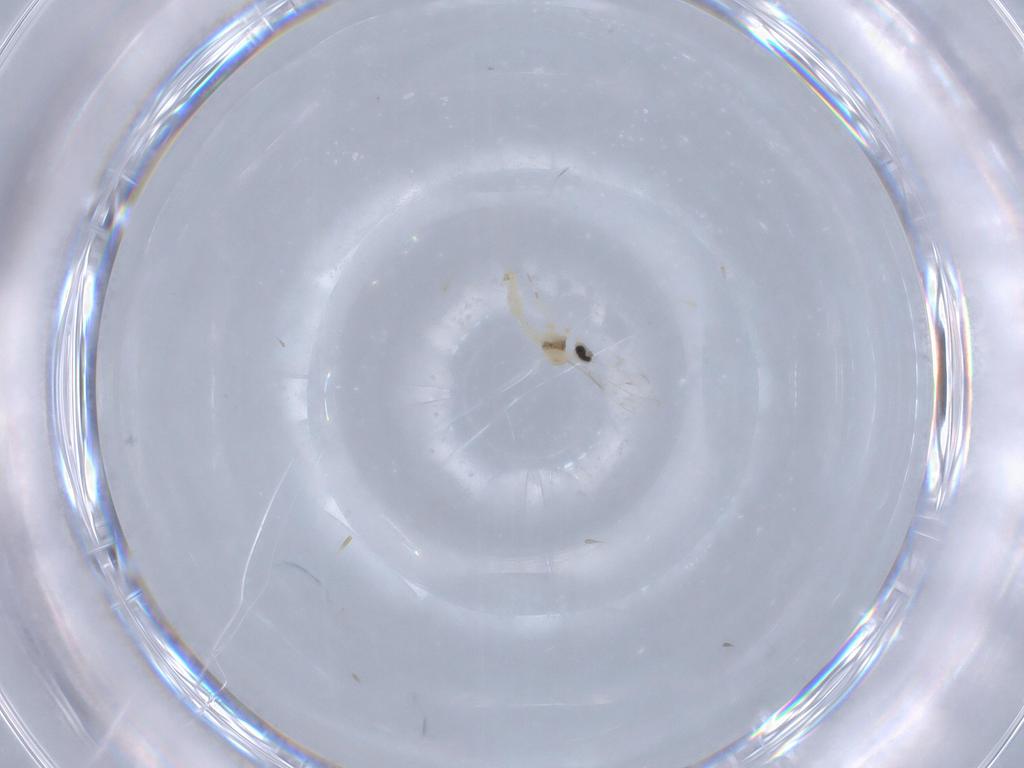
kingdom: Animalia
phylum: Arthropoda
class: Insecta
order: Diptera
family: Cecidomyiidae
